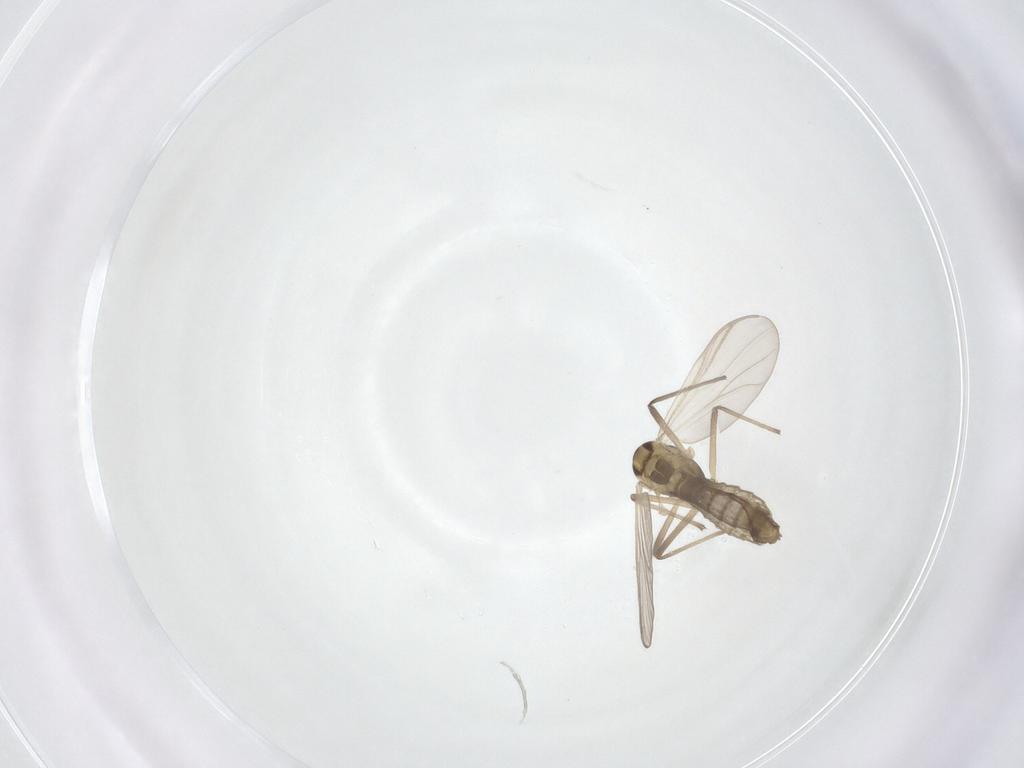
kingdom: Animalia
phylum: Arthropoda
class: Insecta
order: Diptera
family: Chironomidae
